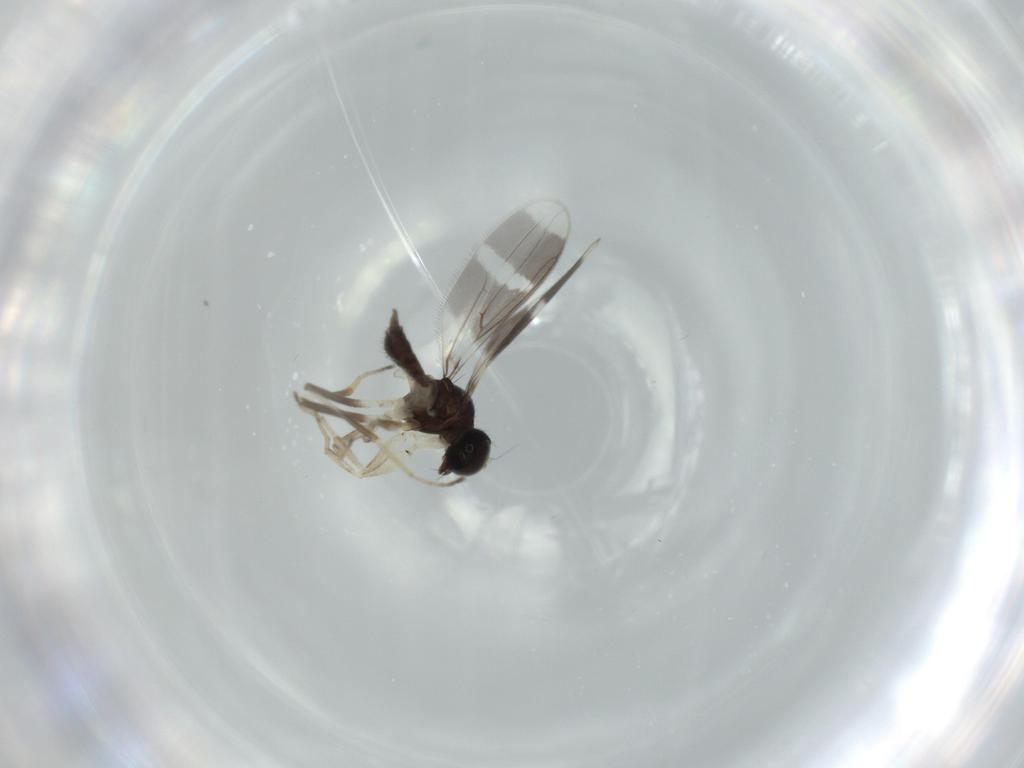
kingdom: Animalia
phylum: Arthropoda
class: Insecta
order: Diptera
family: Hybotidae
